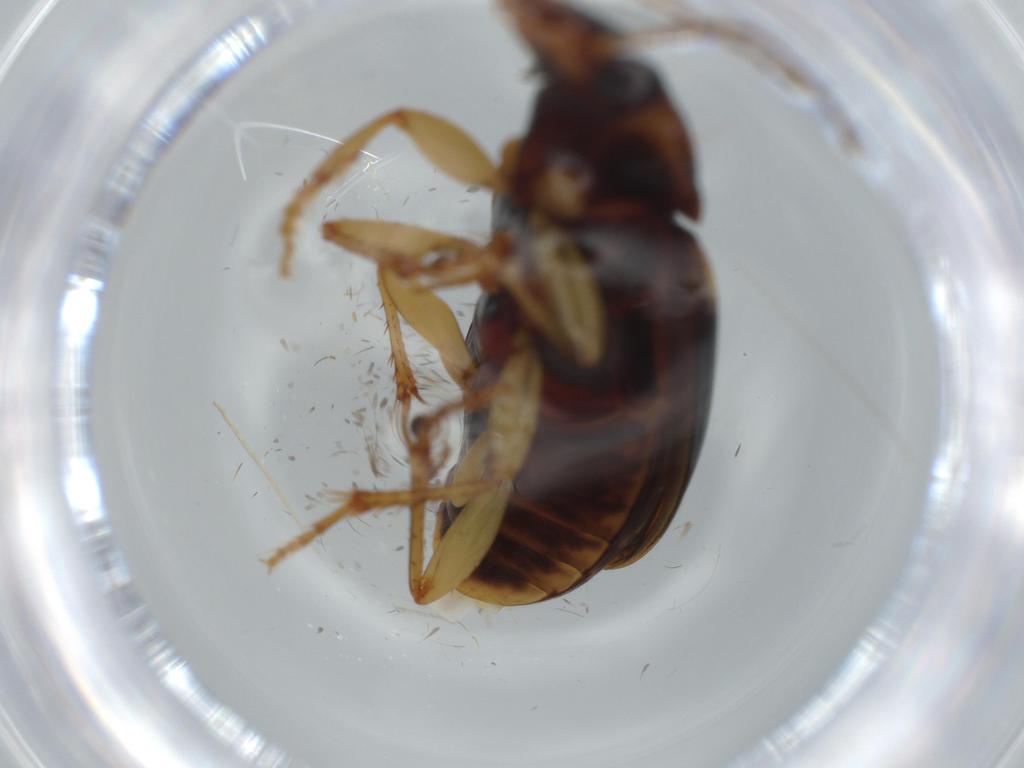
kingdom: Animalia
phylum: Arthropoda
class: Insecta
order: Coleoptera
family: Carabidae
